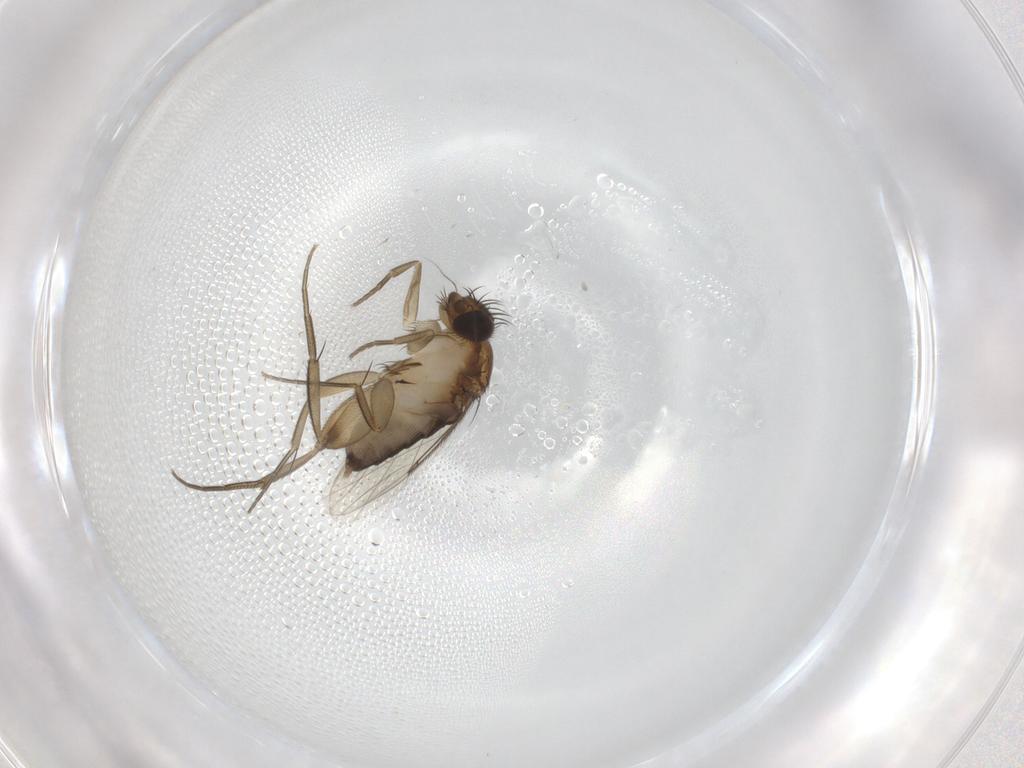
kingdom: Animalia
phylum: Arthropoda
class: Insecta
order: Diptera
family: Phoridae
